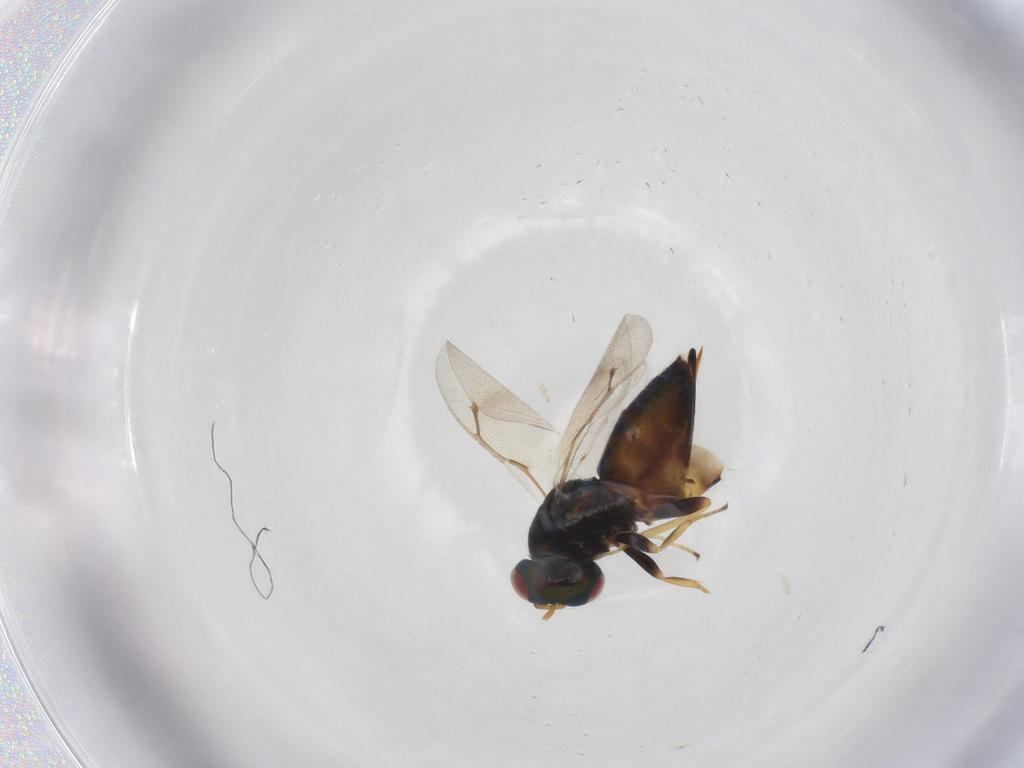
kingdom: Animalia
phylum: Arthropoda
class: Insecta
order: Hymenoptera
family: Pteromalidae
